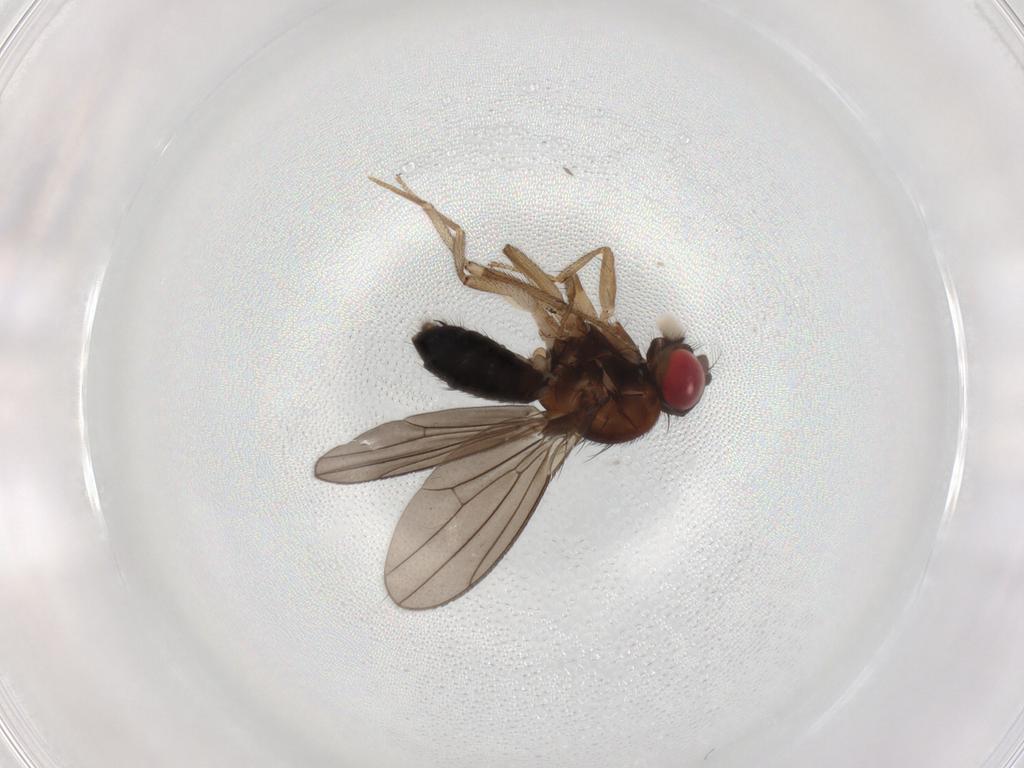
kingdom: Animalia
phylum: Arthropoda
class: Insecta
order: Diptera
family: Drosophilidae
